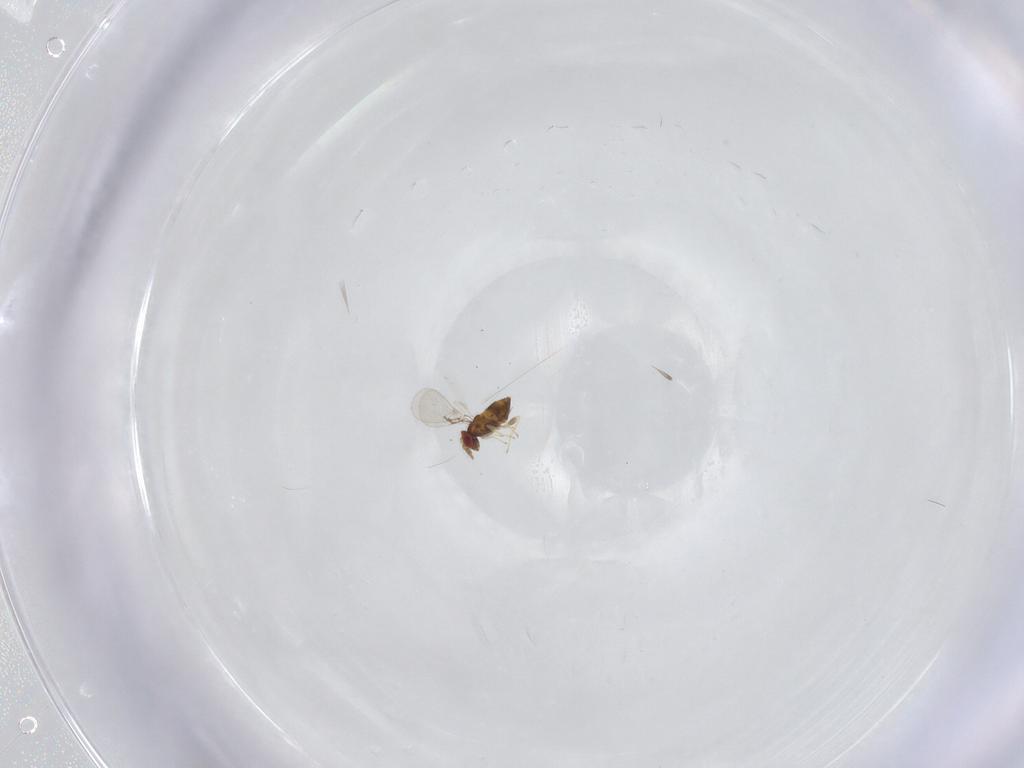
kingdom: Animalia
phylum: Arthropoda
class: Insecta
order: Hymenoptera
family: Trichogrammatidae
